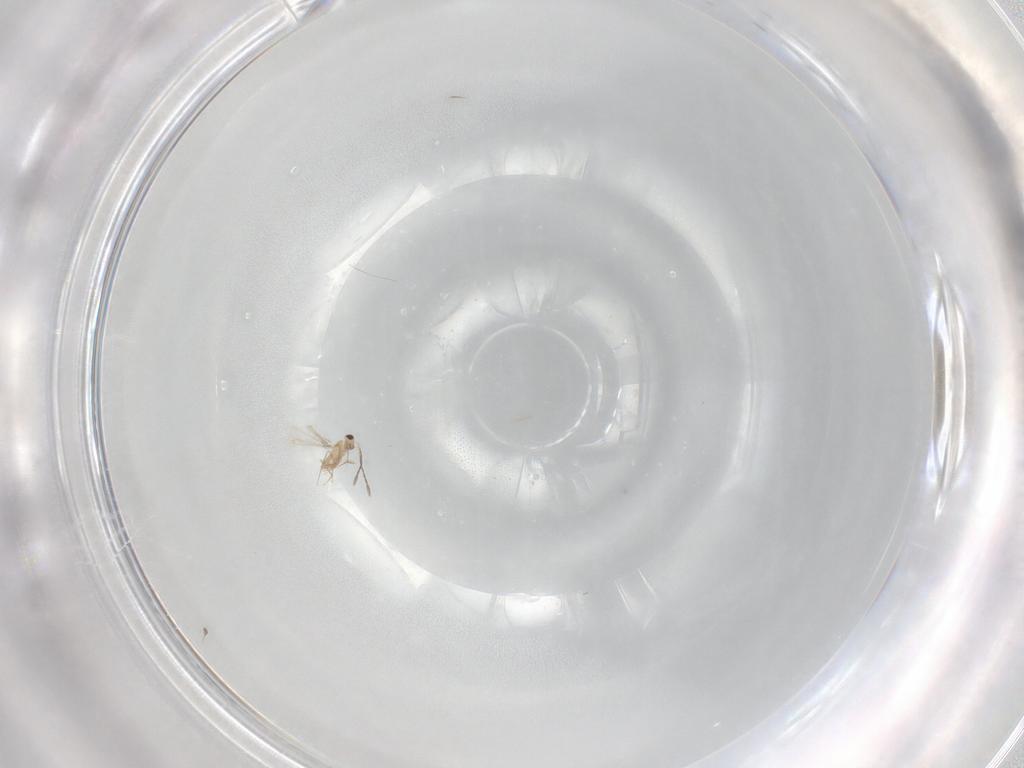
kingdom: Animalia
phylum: Arthropoda
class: Insecta
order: Hymenoptera
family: Mymaridae
